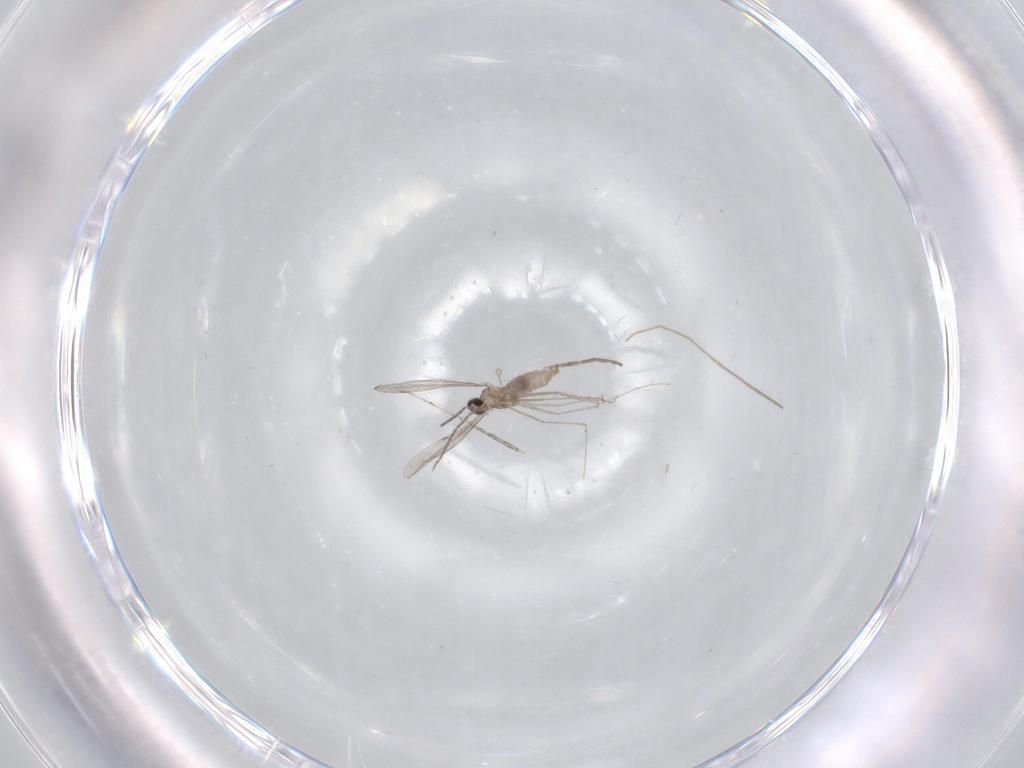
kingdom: Animalia
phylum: Arthropoda
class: Insecta
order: Diptera
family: Chironomidae
